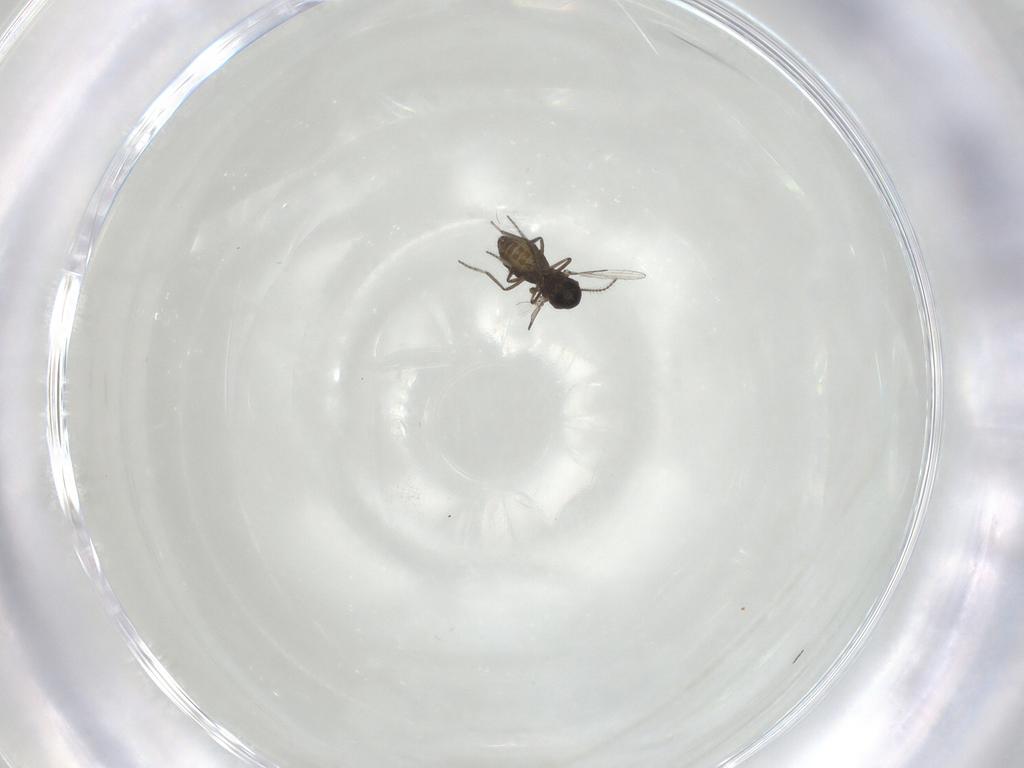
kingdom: Animalia
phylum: Arthropoda
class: Insecta
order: Diptera
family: Ceratopogonidae
